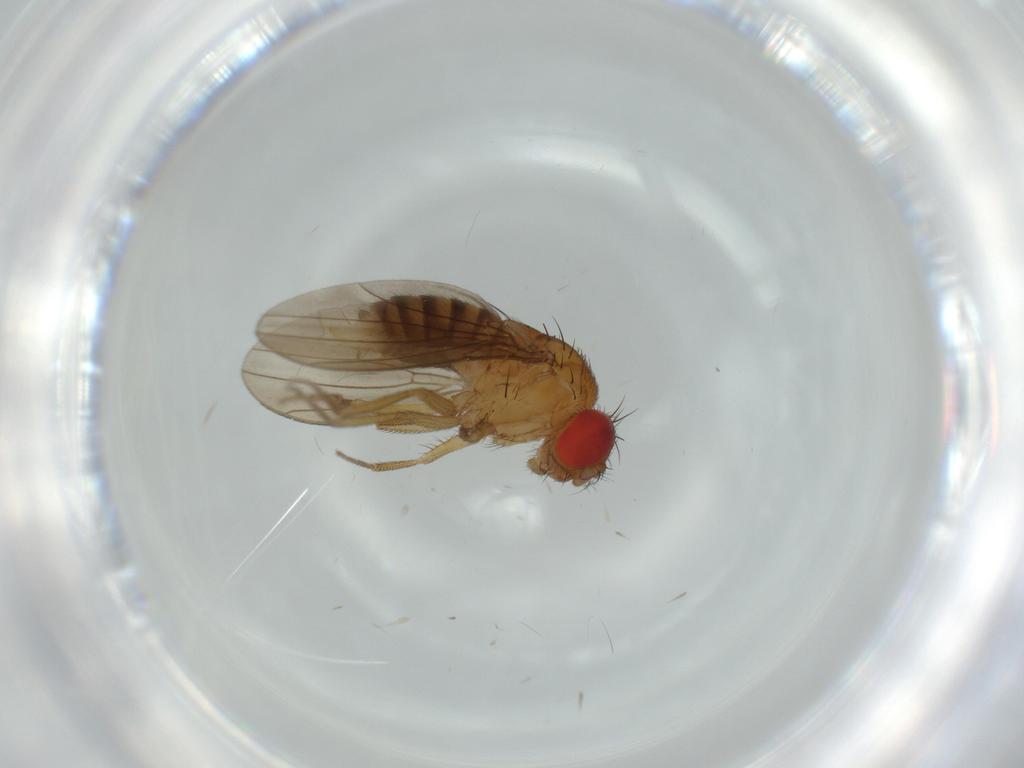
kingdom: Animalia
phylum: Arthropoda
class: Insecta
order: Diptera
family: Drosophilidae
